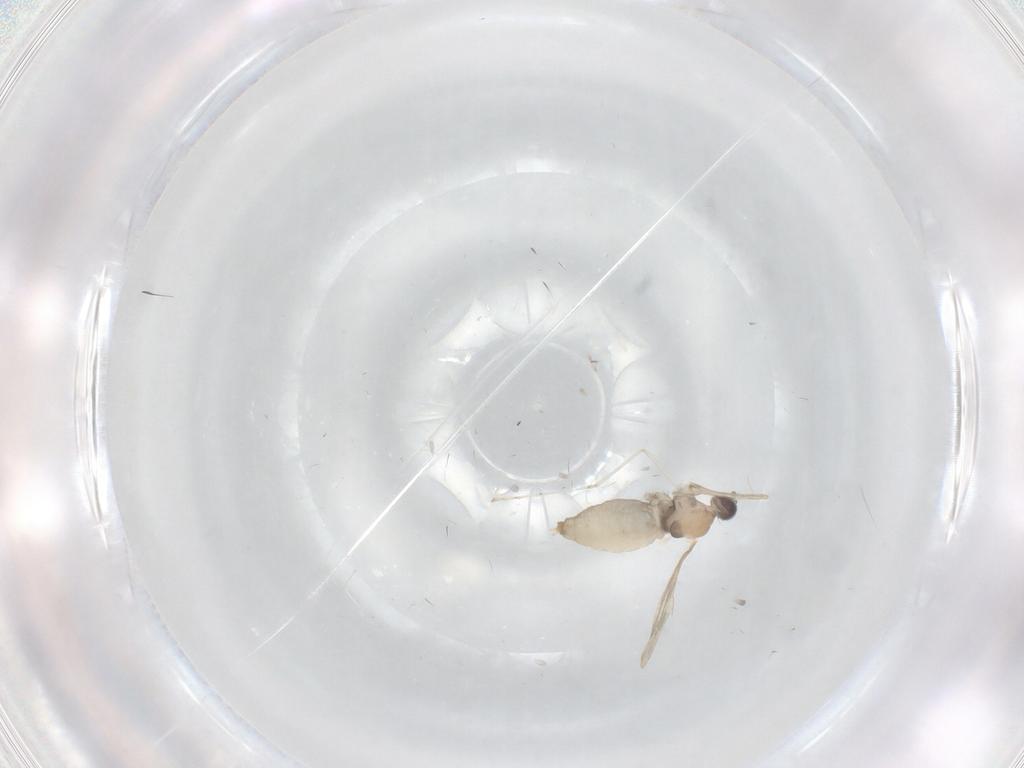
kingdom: Animalia
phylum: Arthropoda
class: Insecta
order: Diptera
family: Cecidomyiidae
